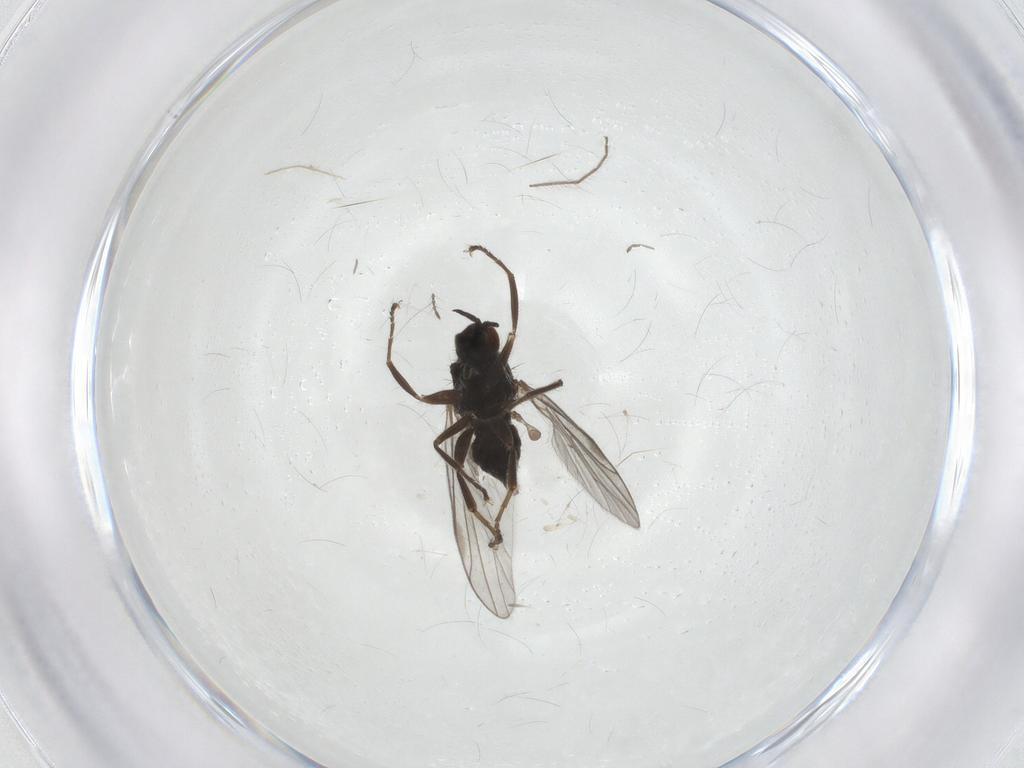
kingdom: Animalia
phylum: Arthropoda
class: Insecta
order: Diptera
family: Hybotidae
